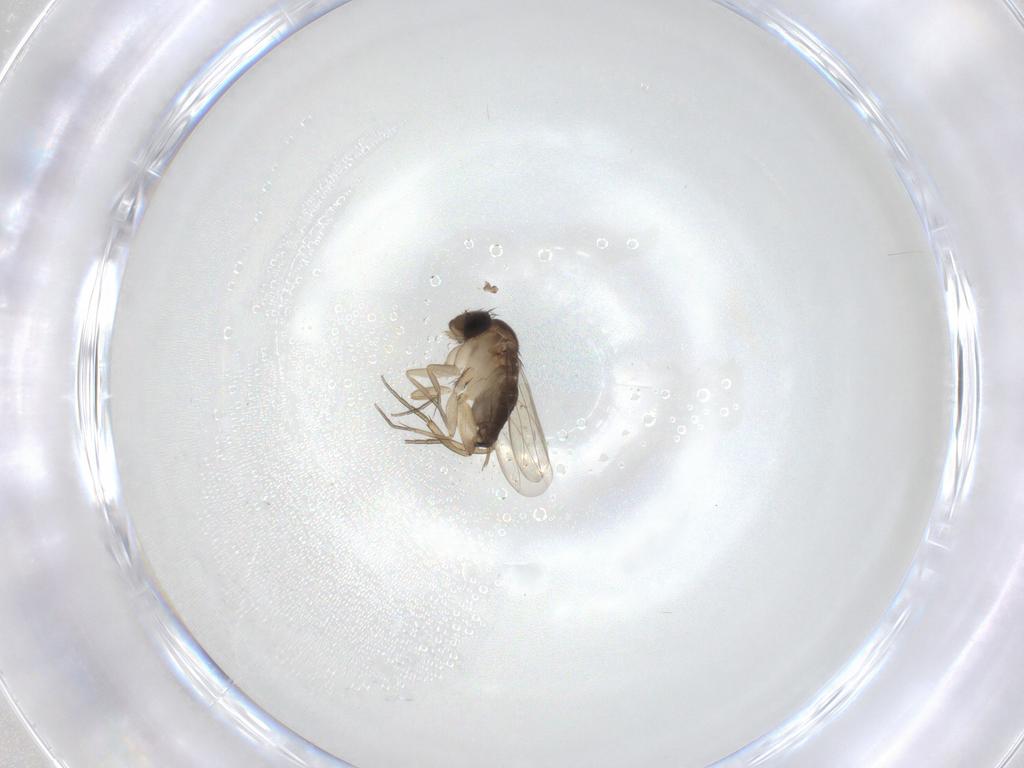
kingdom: Animalia
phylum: Arthropoda
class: Insecta
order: Diptera
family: Phoridae
